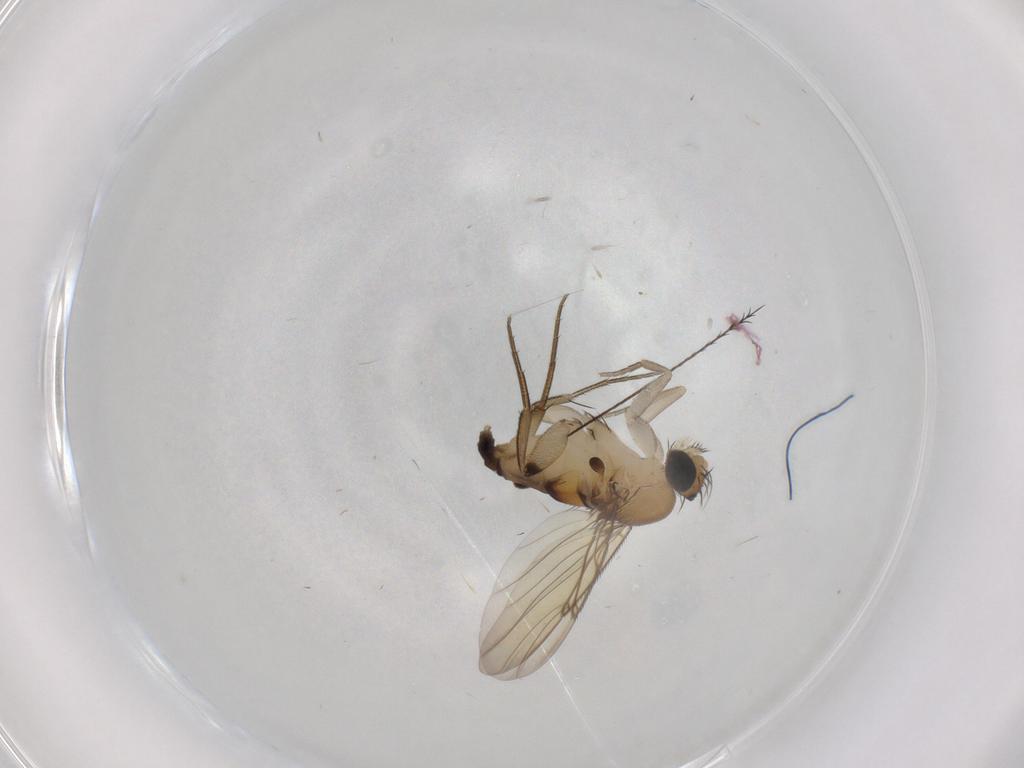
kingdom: Animalia
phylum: Arthropoda
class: Insecta
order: Diptera
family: Phoridae
